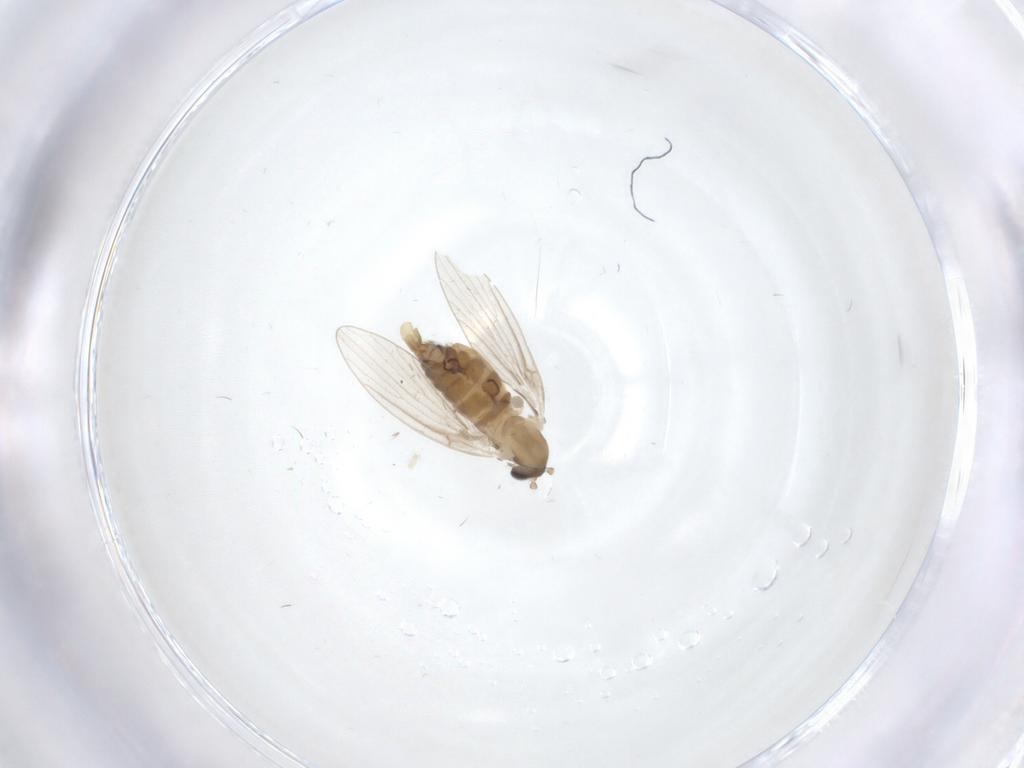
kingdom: Animalia
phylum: Arthropoda
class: Insecta
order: Diptera
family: Psychodidae
